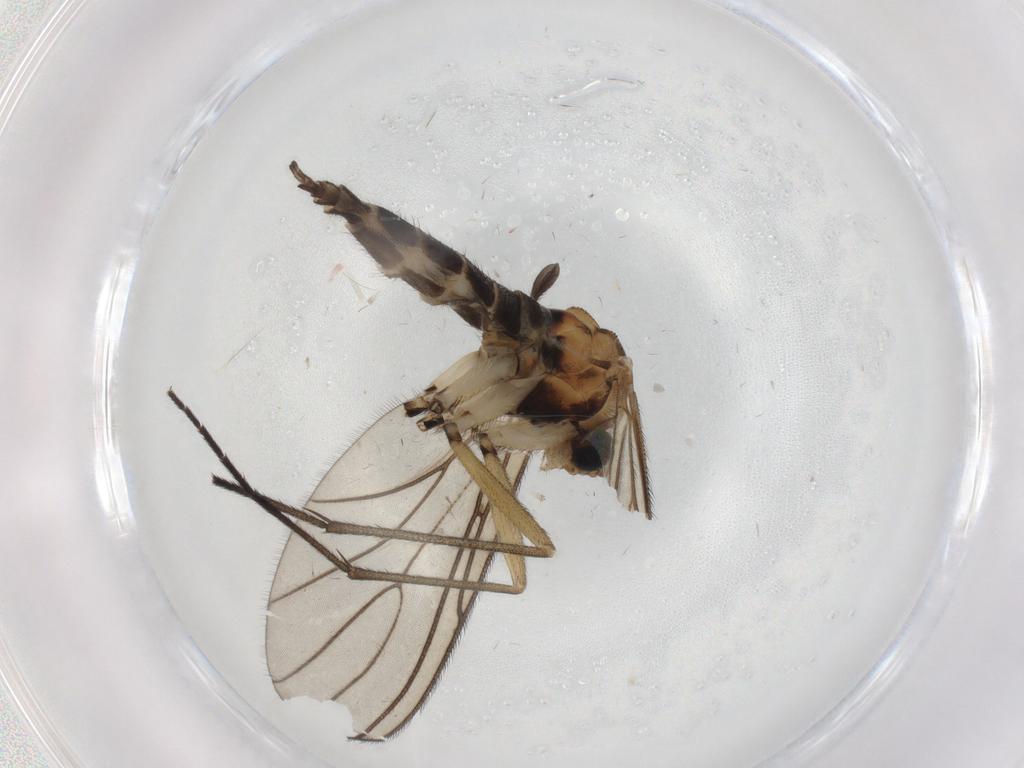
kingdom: Animalia
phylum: Arthropoda
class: Insecta
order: Diptera
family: Sciaridae
